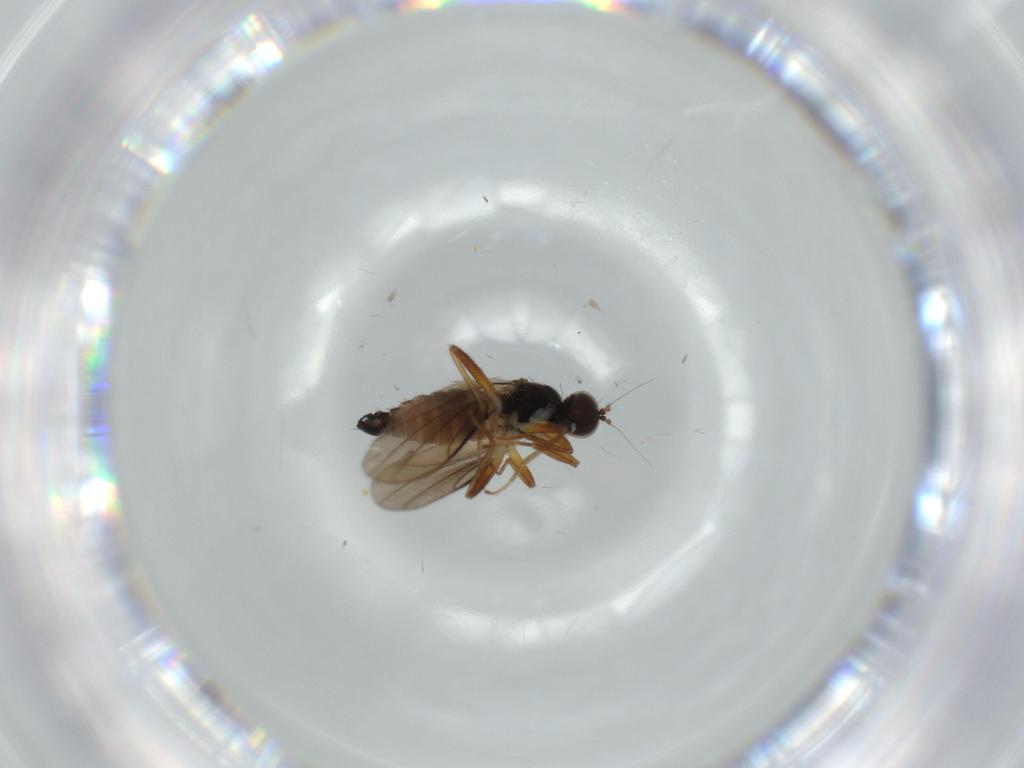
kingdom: Animalia
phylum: Arthropoda
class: Insecta
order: Diptera
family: Hybotidae
